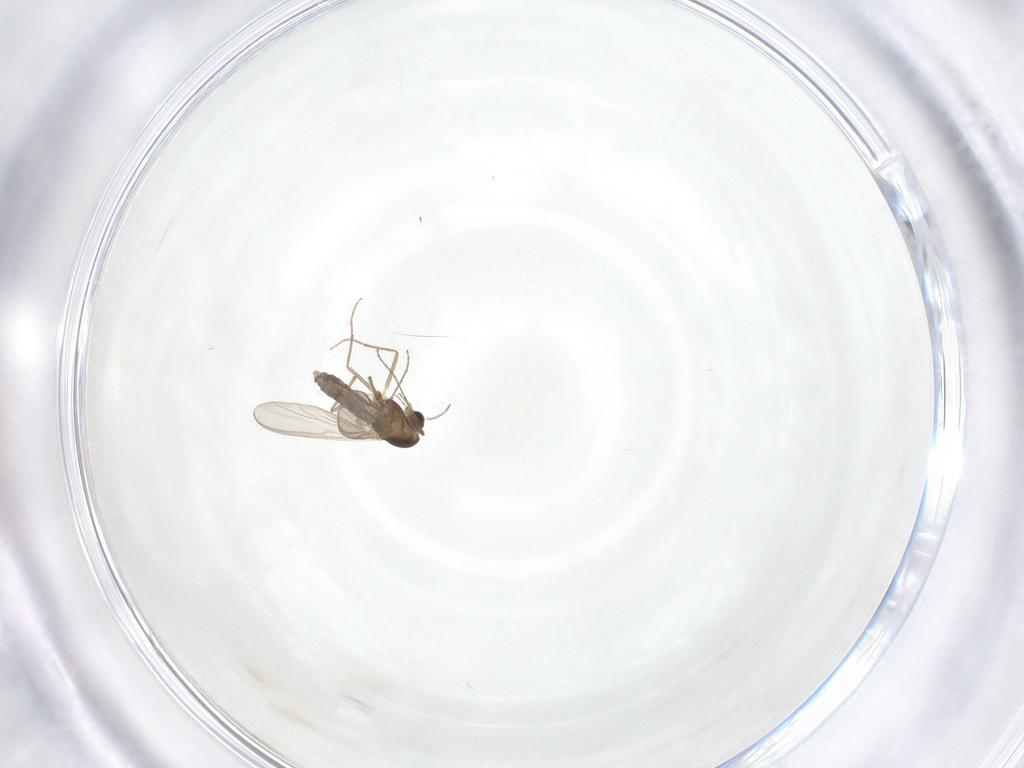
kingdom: Animalia
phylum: Arthropoda
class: Insecta
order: Diptera
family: Chironomidae
